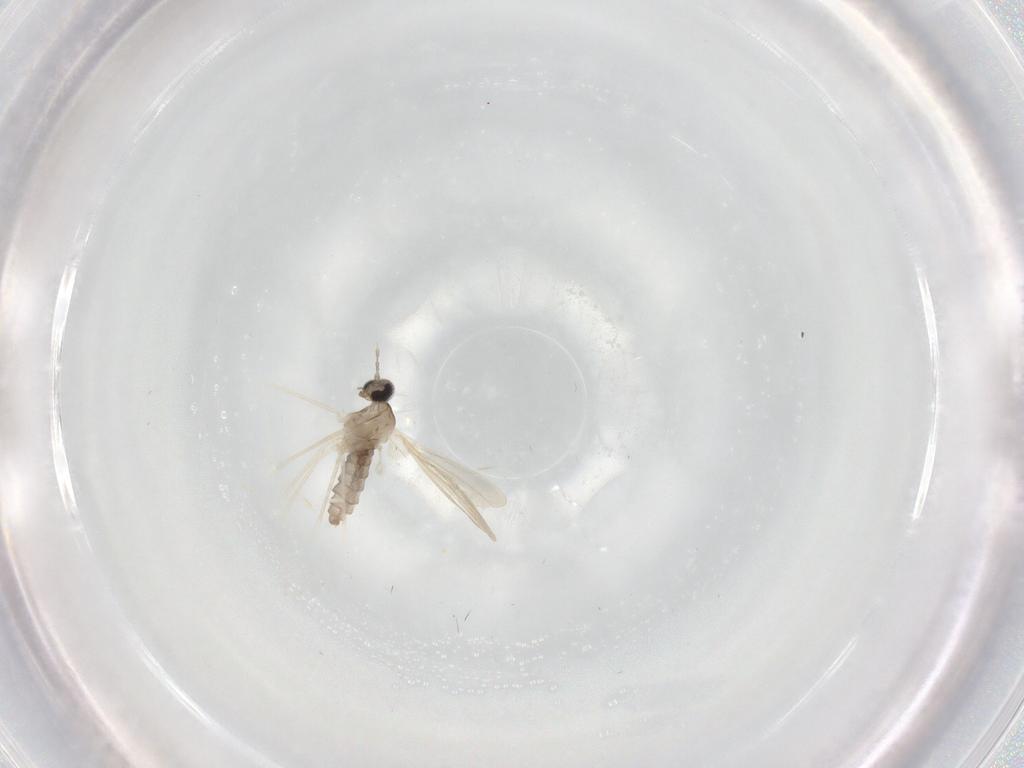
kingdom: Animalia
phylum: Arthropoda
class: Insecta
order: Diptera
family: Cecidomyiidae
